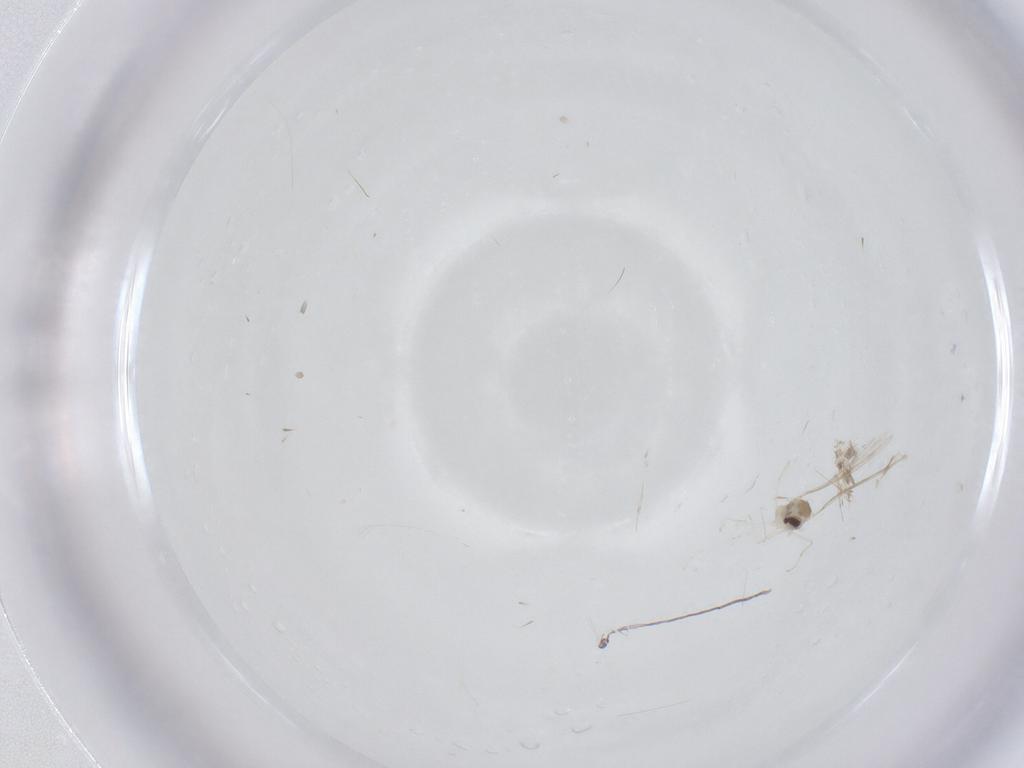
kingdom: Animalia
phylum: Arthropoda
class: Insecta
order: Diptera
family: Cecidomyiidae
